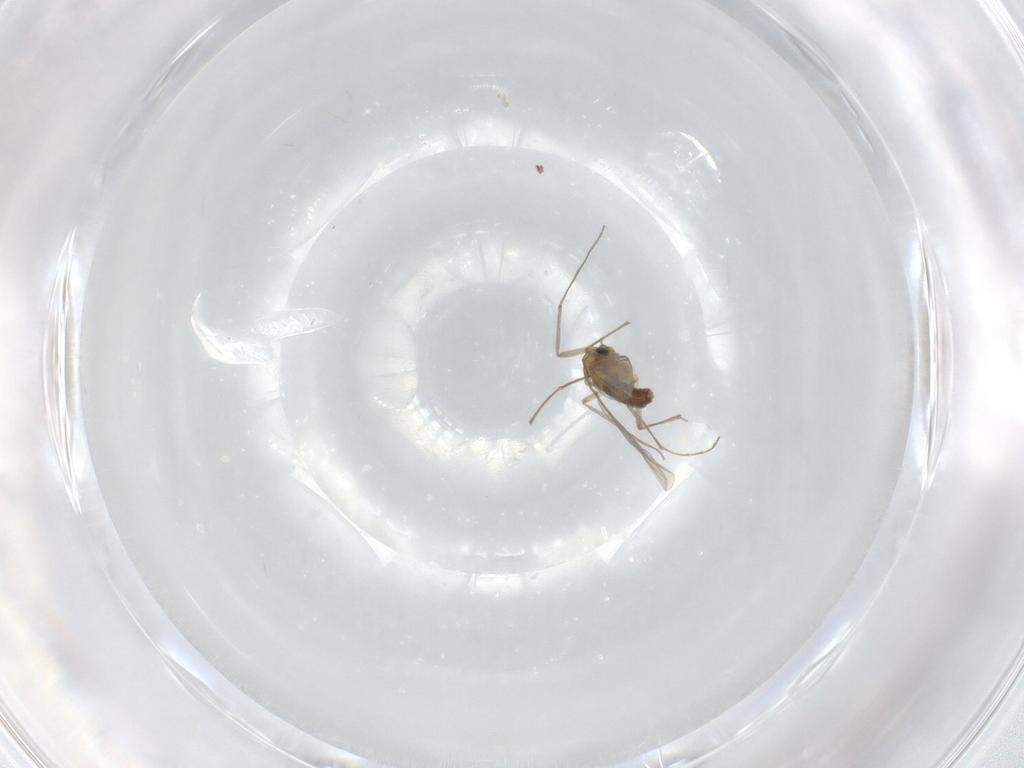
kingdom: Animalia
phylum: Arthropoda
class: Insecta
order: Diptera
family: Chironomidae
